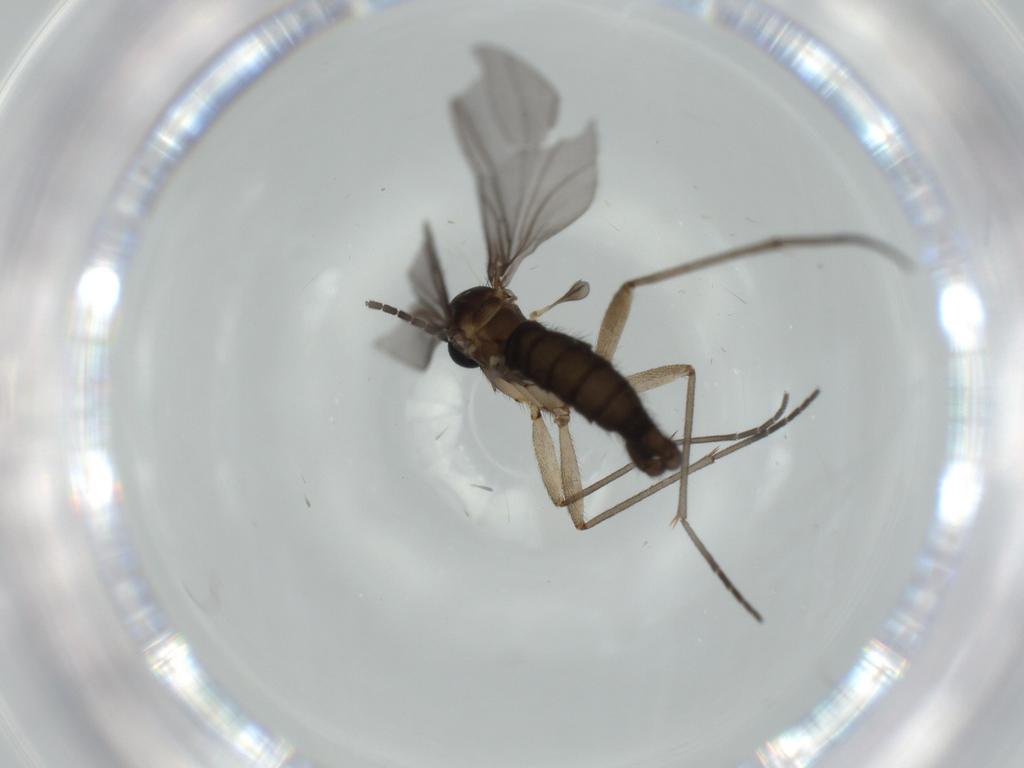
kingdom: Animalia
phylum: Arthropoda
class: Insecta
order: Diptera
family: Sciaridae
